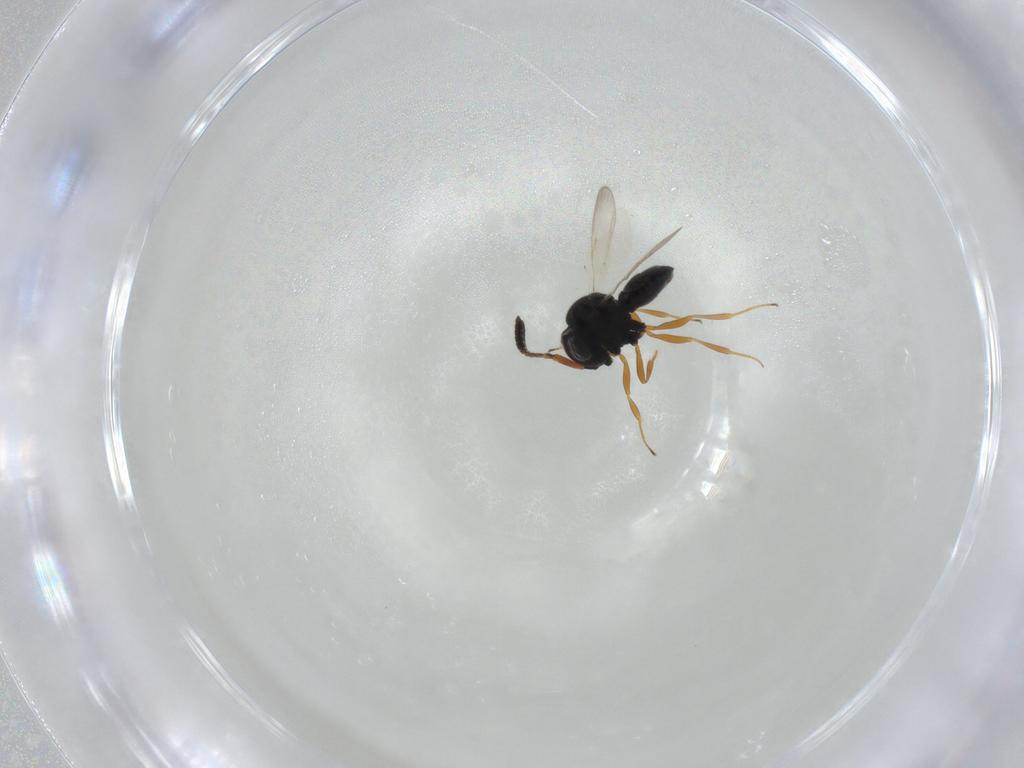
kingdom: Animalia
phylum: Arthropoda
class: Insecta
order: Hymenoptera
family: Scelionidae
